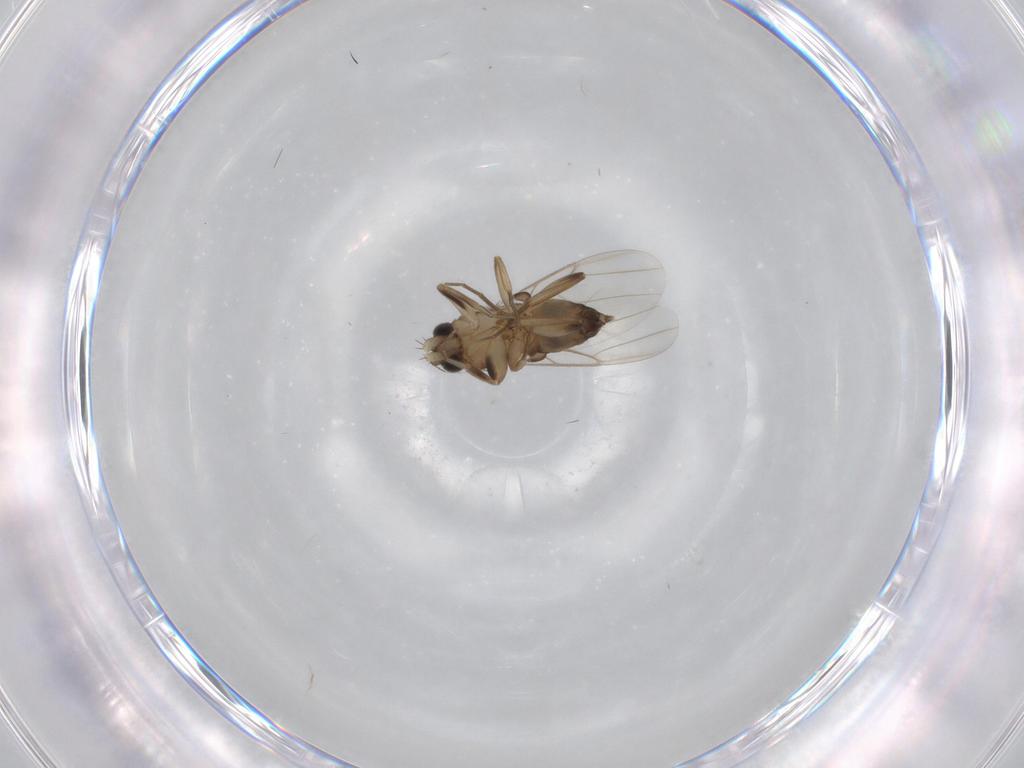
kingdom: Animalia
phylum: Arthropoda
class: Insecta
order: Diptera
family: Phoridae
